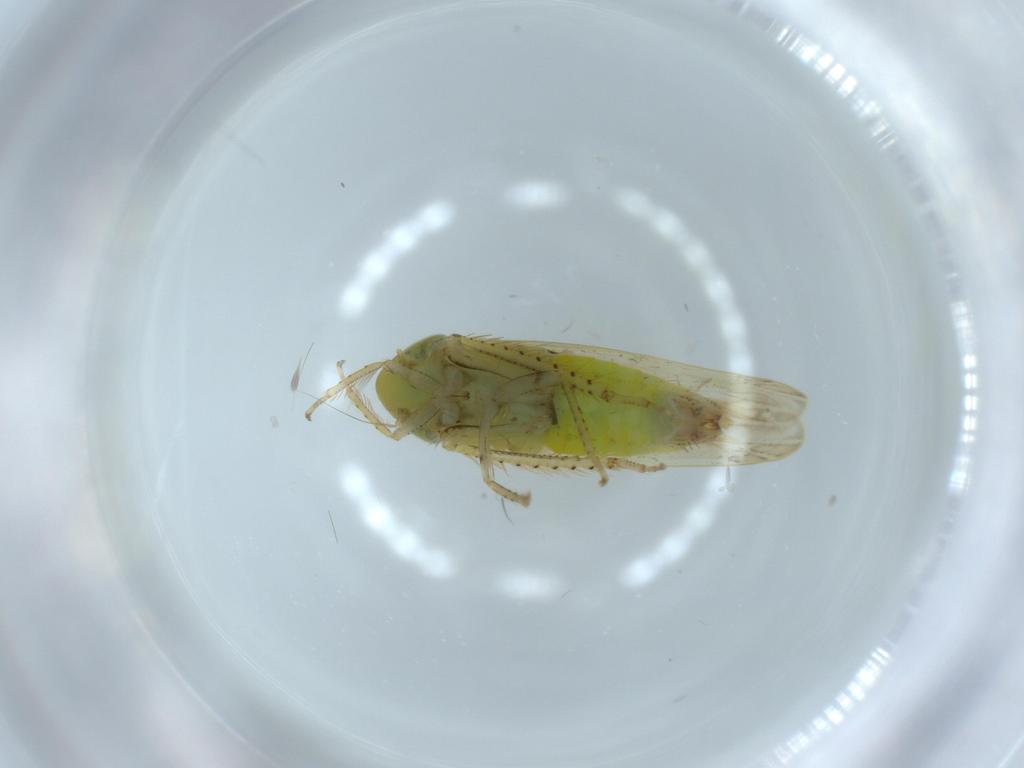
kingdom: Animalia
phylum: Arthropoda
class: Insecta
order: Hemiptera
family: Cicadellidae
